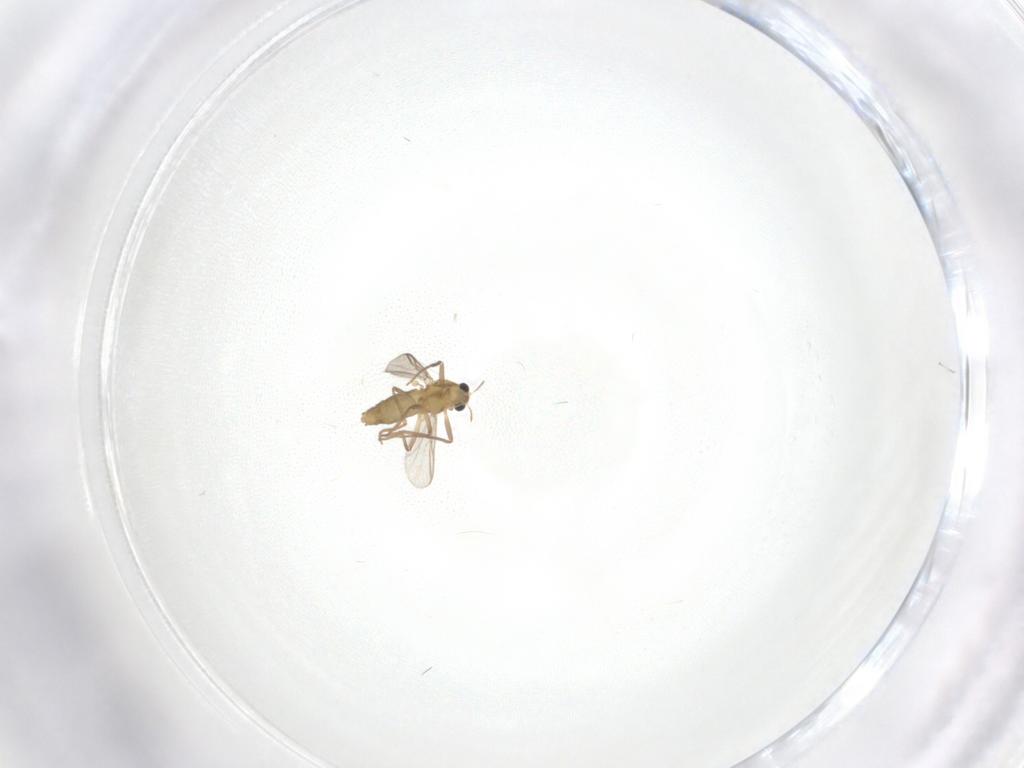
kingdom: Animalia
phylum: Arthropoda
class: Insecta
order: Diptera
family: Chironomidae
